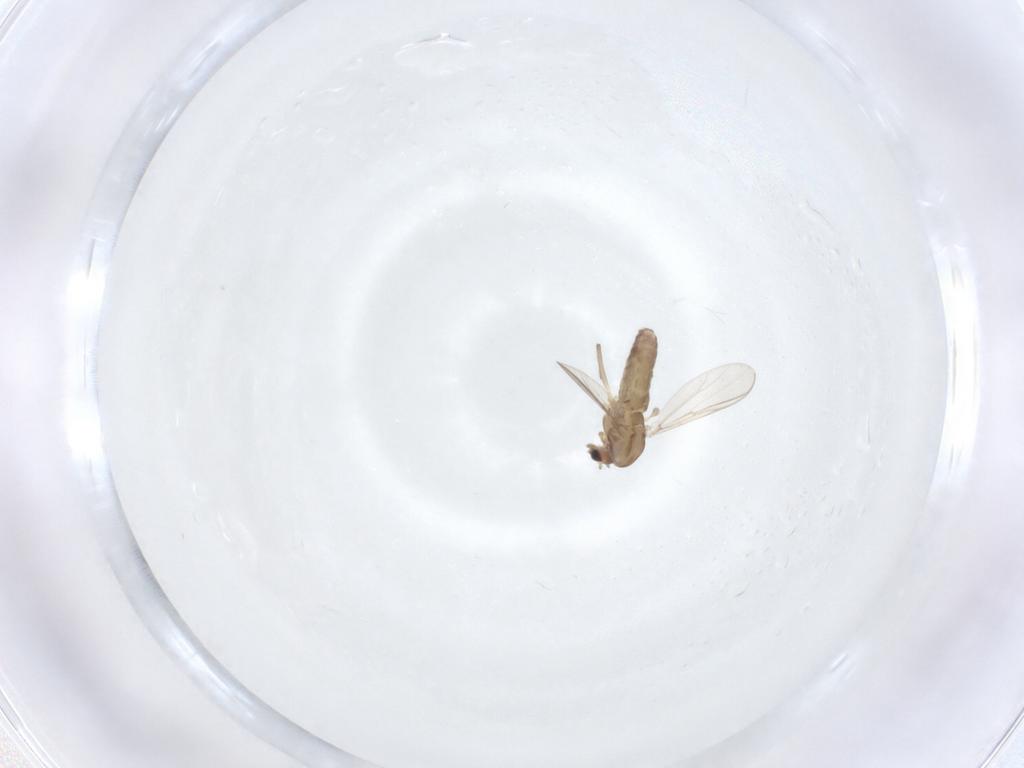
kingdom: Animalia
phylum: Arthropoda
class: Insecta
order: Diptera
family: Chironomidae
